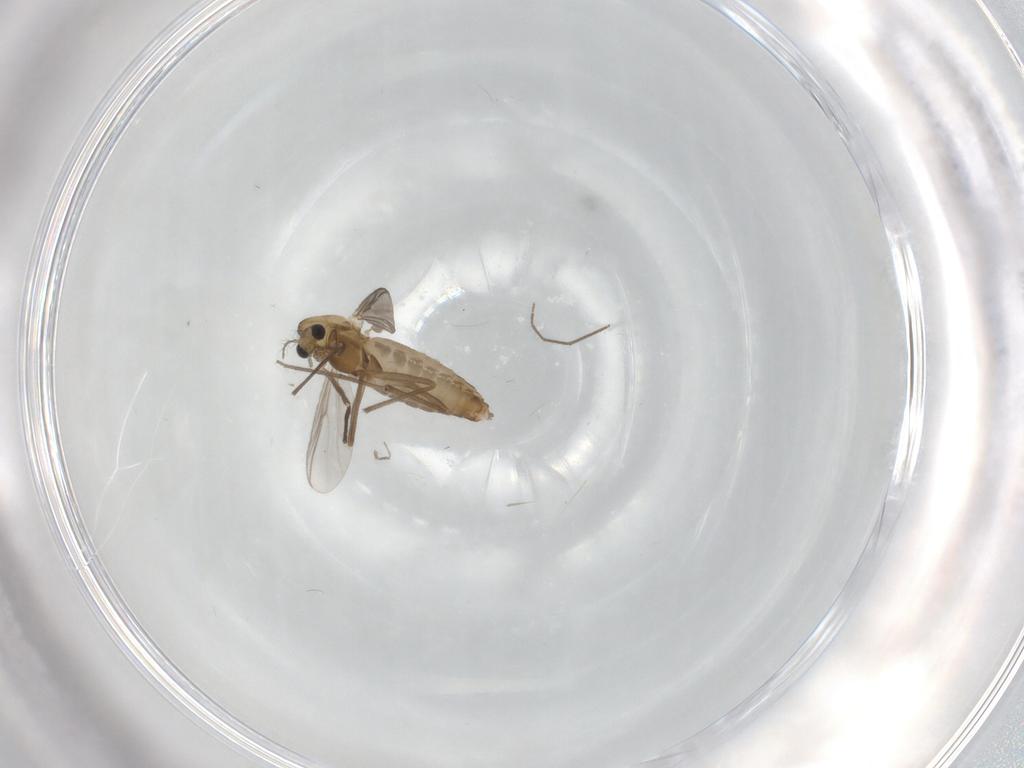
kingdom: Animalia
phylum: Arthropoda
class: Insecta
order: Diptera
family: Chironomidae
